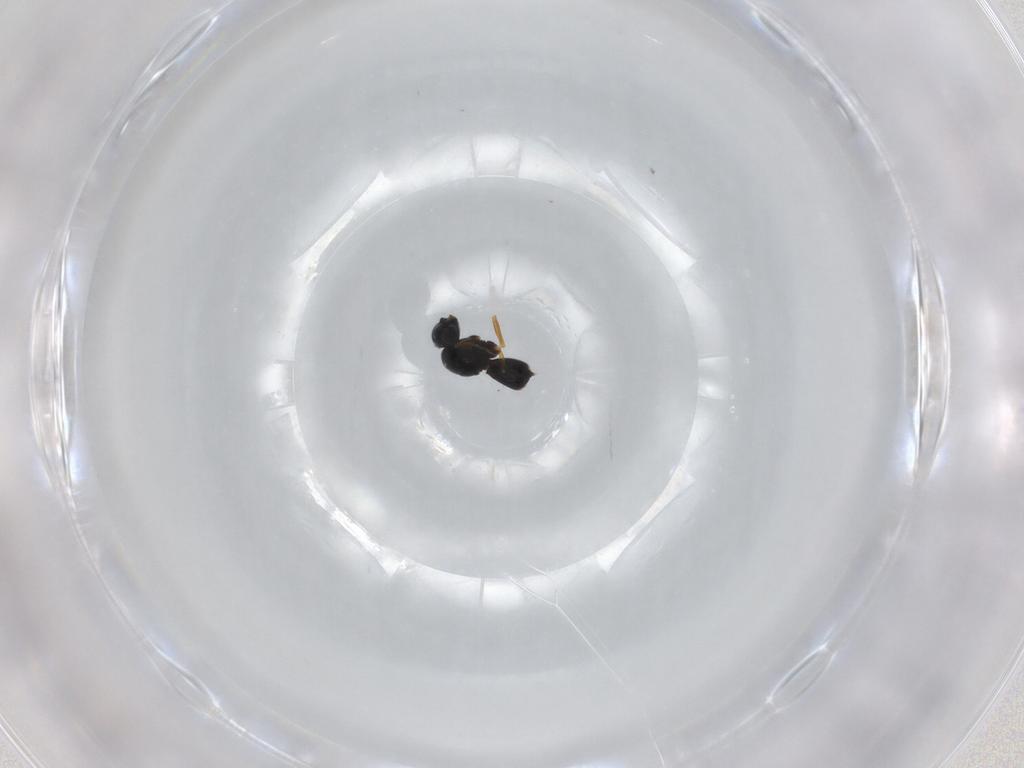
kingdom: Animalia
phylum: Arthropoda
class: Insecta
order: Hymenoptera
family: Scelionidae
